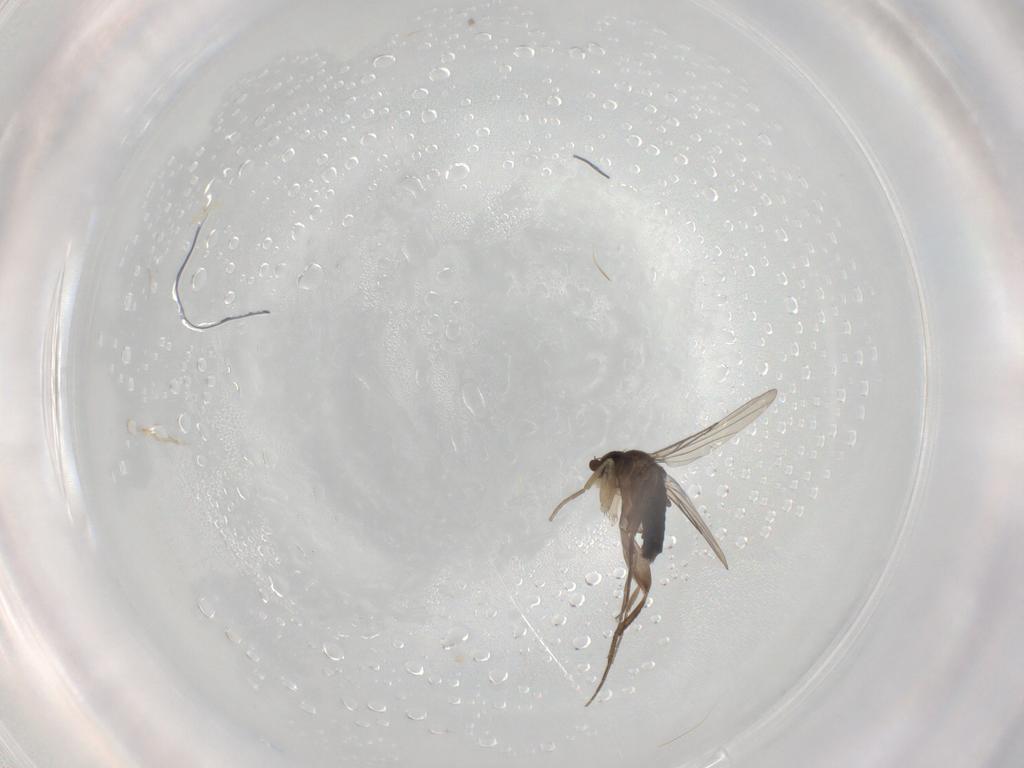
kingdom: Animalia
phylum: Arthropoda
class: Insecta
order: Diptera
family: Phoridae
